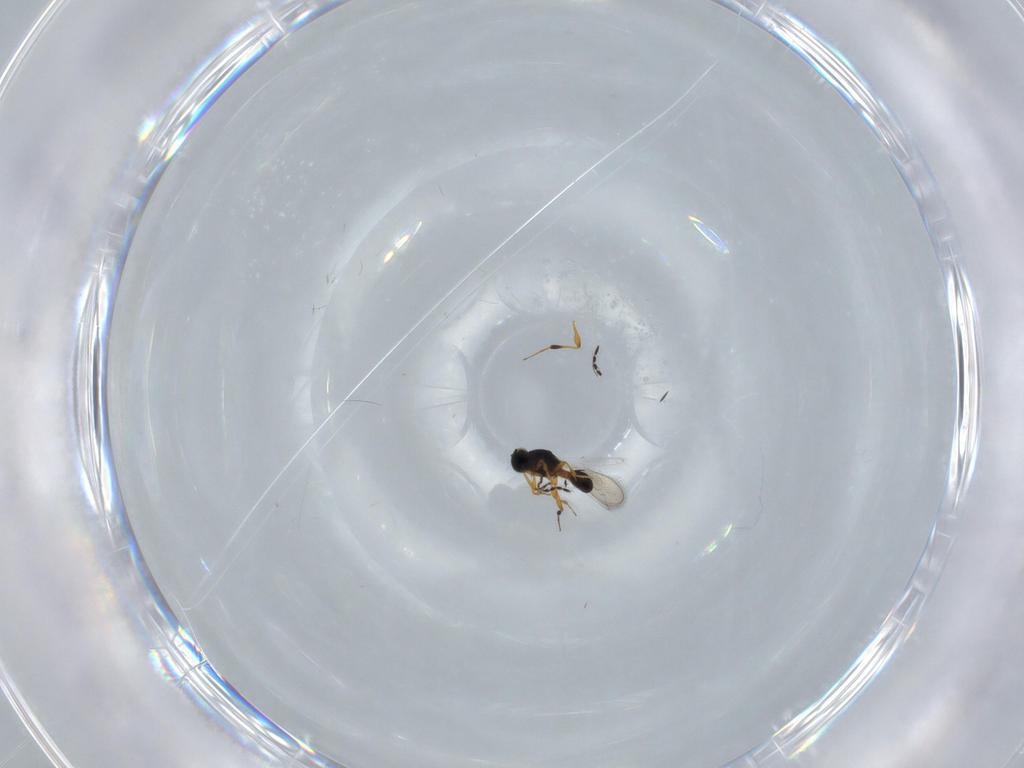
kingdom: Animalia
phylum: Arthropoda
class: Insecta
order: Hymenoptera
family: Platygastridae
